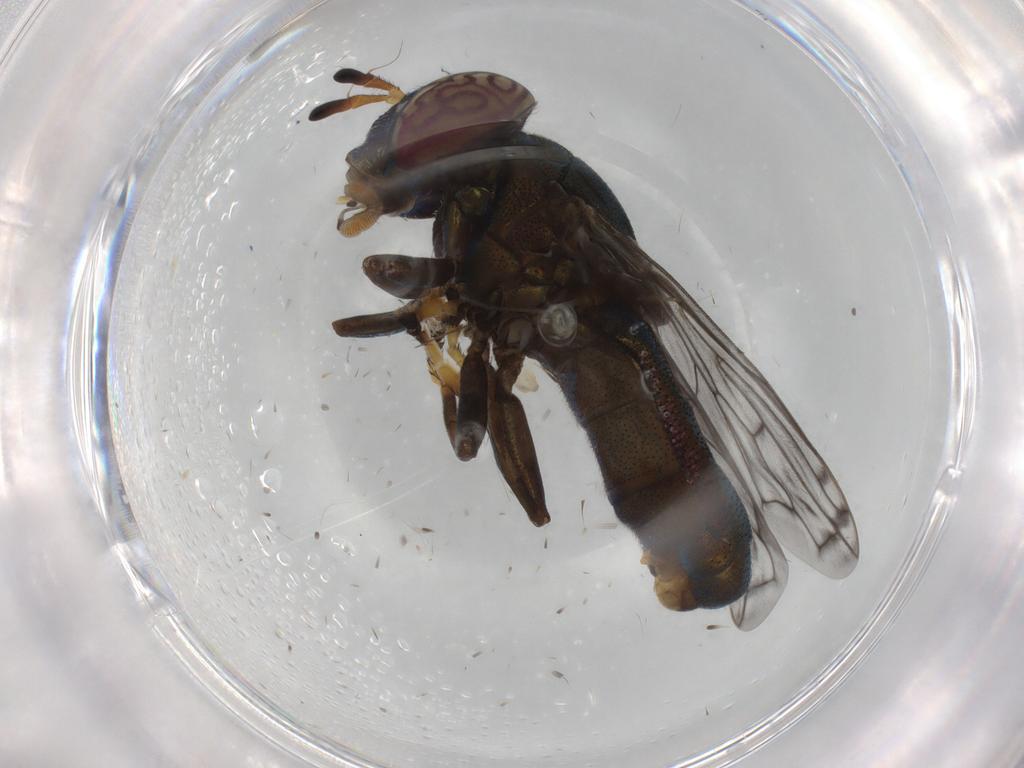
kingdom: Animalia
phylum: Arthropoda
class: Insecta
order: Diptera
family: Syrphidae
